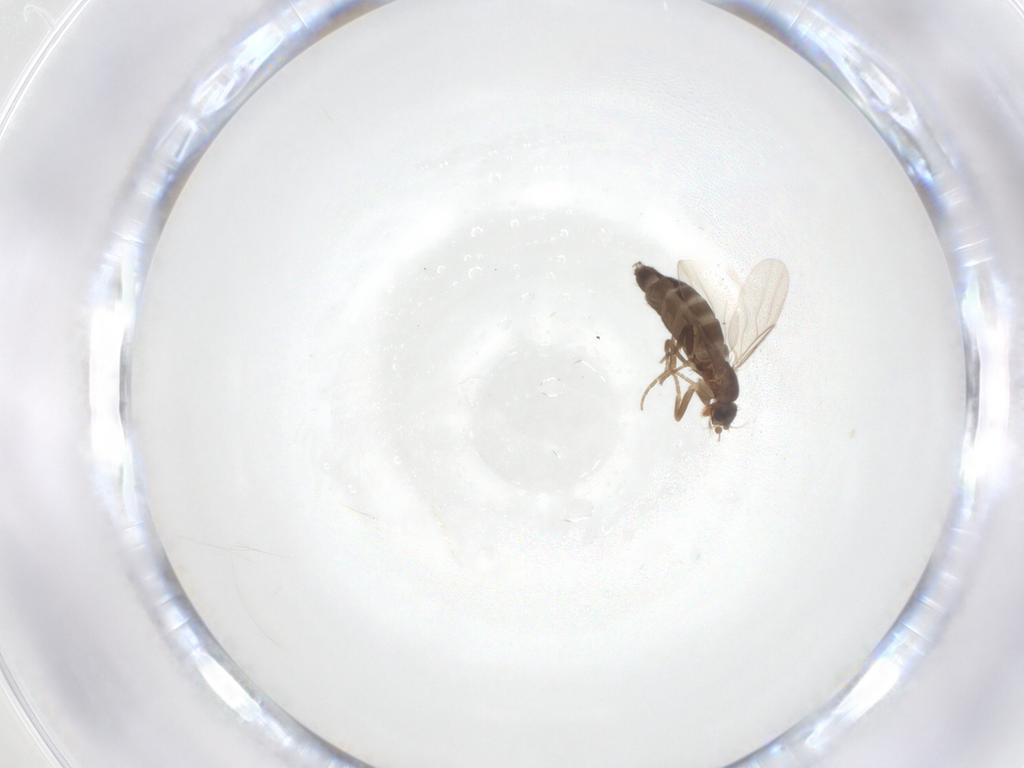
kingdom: Animalia
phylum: Arthropoda
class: Insecta
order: Diptera
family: Phoridae
